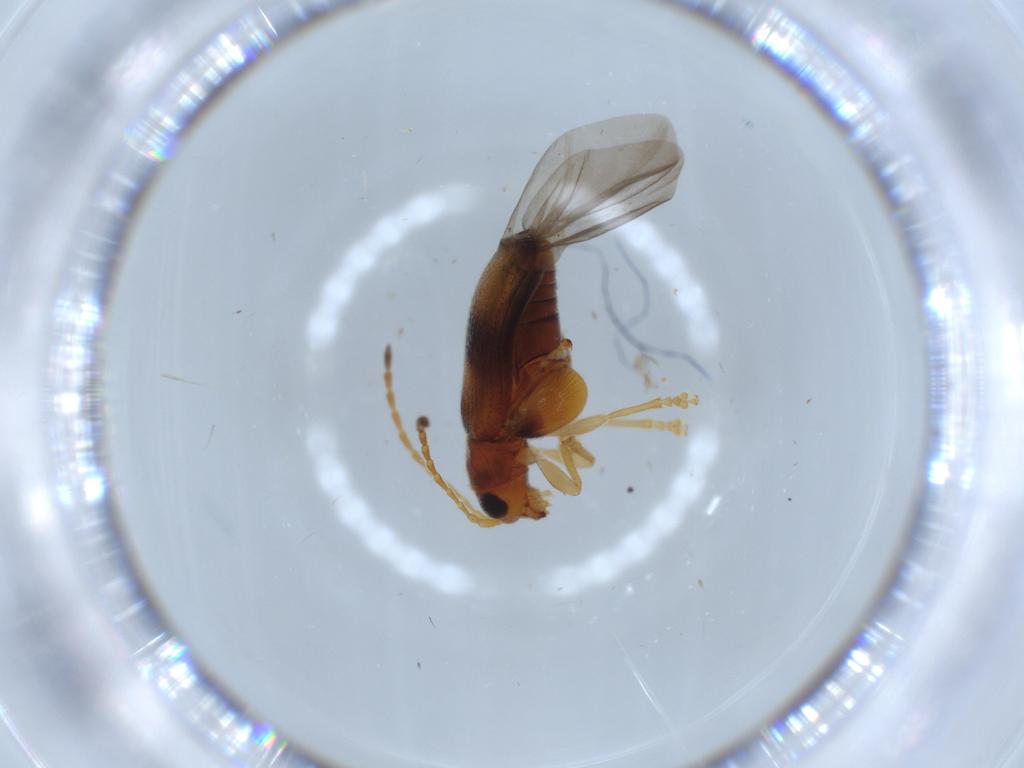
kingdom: Animalia
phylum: Arthropoda
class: Insecta
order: Coleoptera
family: Chrysomelidae
